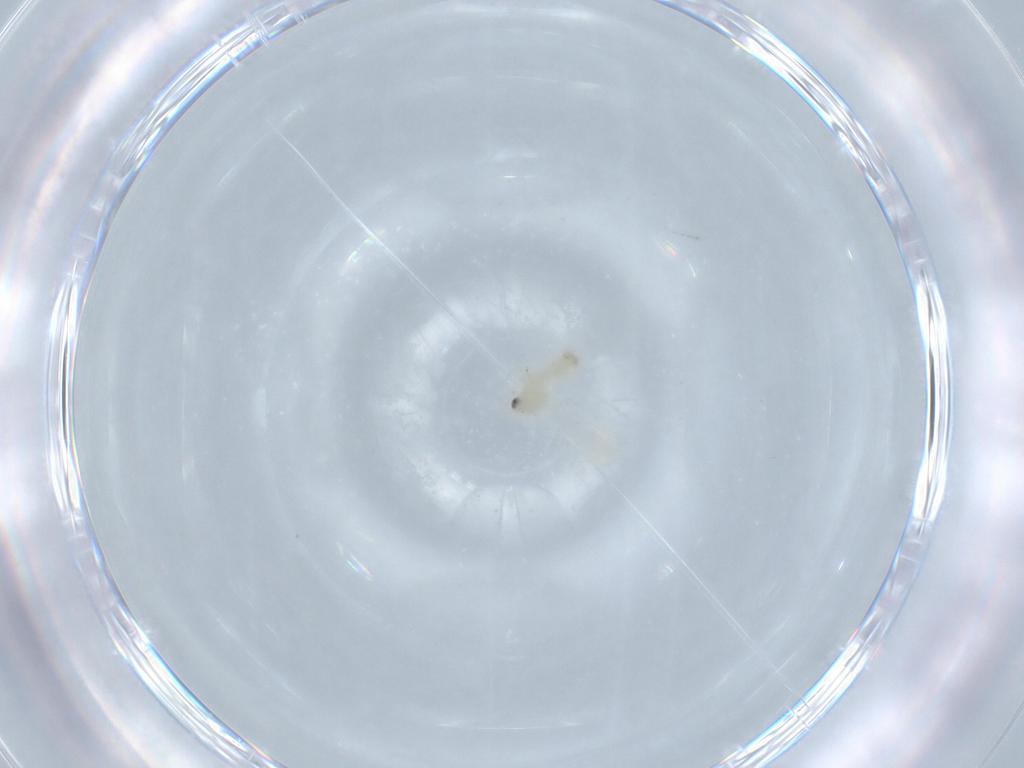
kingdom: Animalia
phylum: Arthropoda
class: Insecta
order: Hemiptera
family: Aleyrodidae
